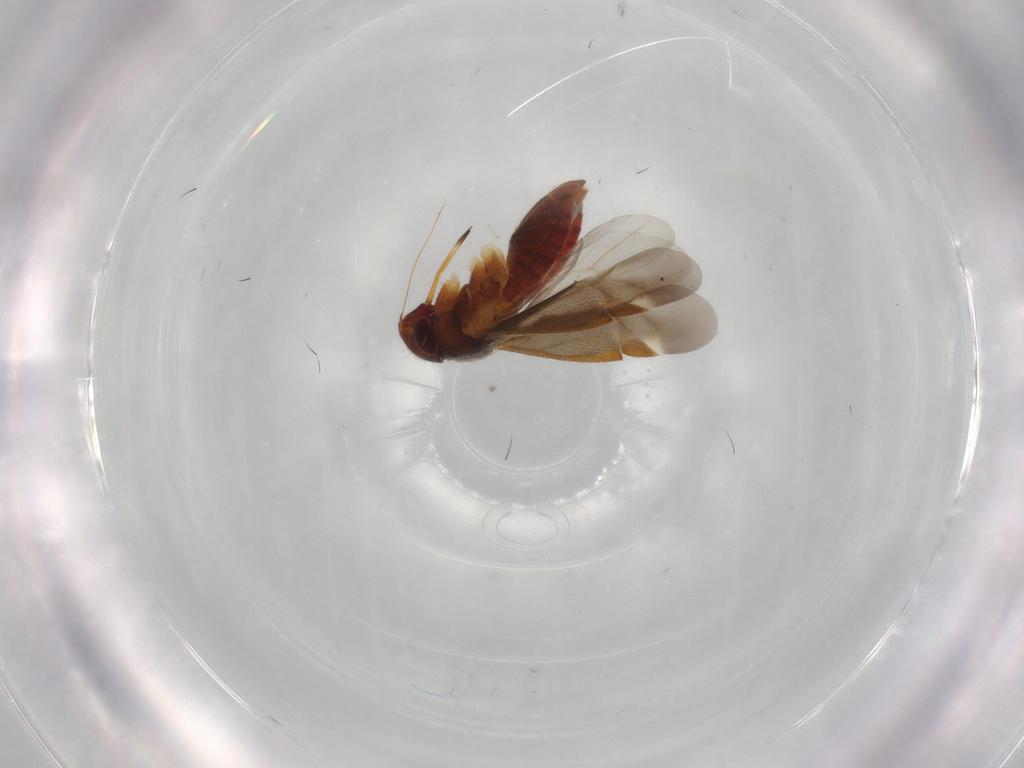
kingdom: Animalia
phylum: Arthropoda
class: Insecta
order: Hemiptera
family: Miridae
